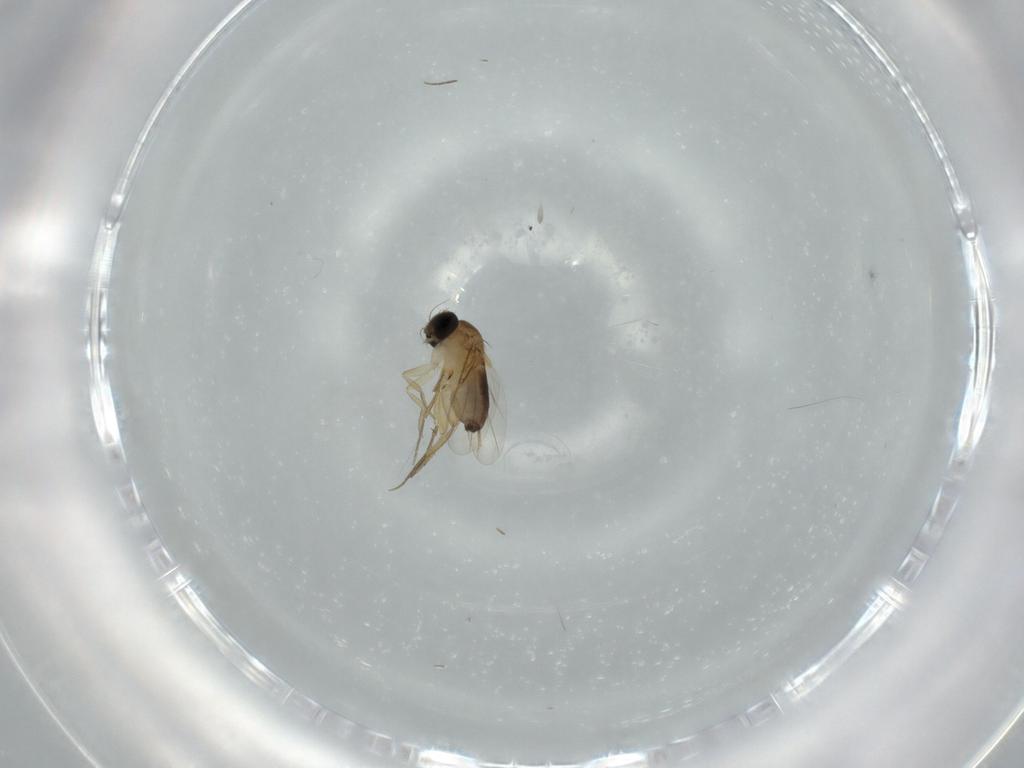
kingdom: Animalia
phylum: Arthropoda
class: Insecta
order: Diptera
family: Phoridae
